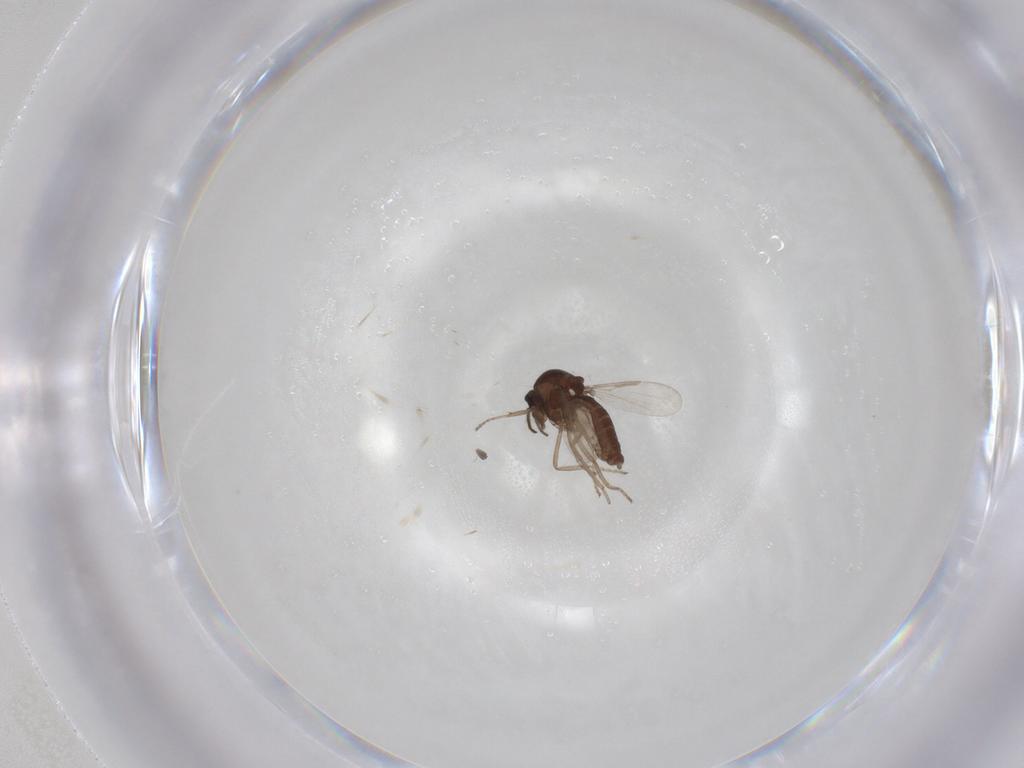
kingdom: Animalia
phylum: Arthropoda
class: Insecta
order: Diptera
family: Ceratopogonidae
